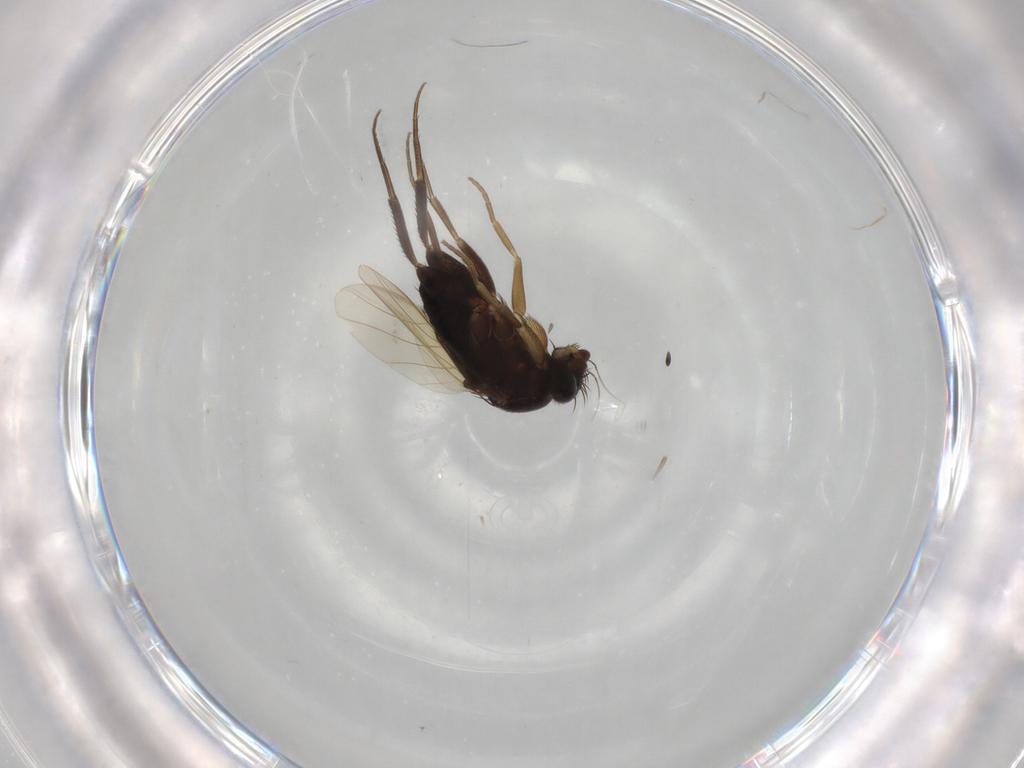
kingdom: Animalia
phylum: Arthropoda
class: Insecta
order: Diptera
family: Phoridae
